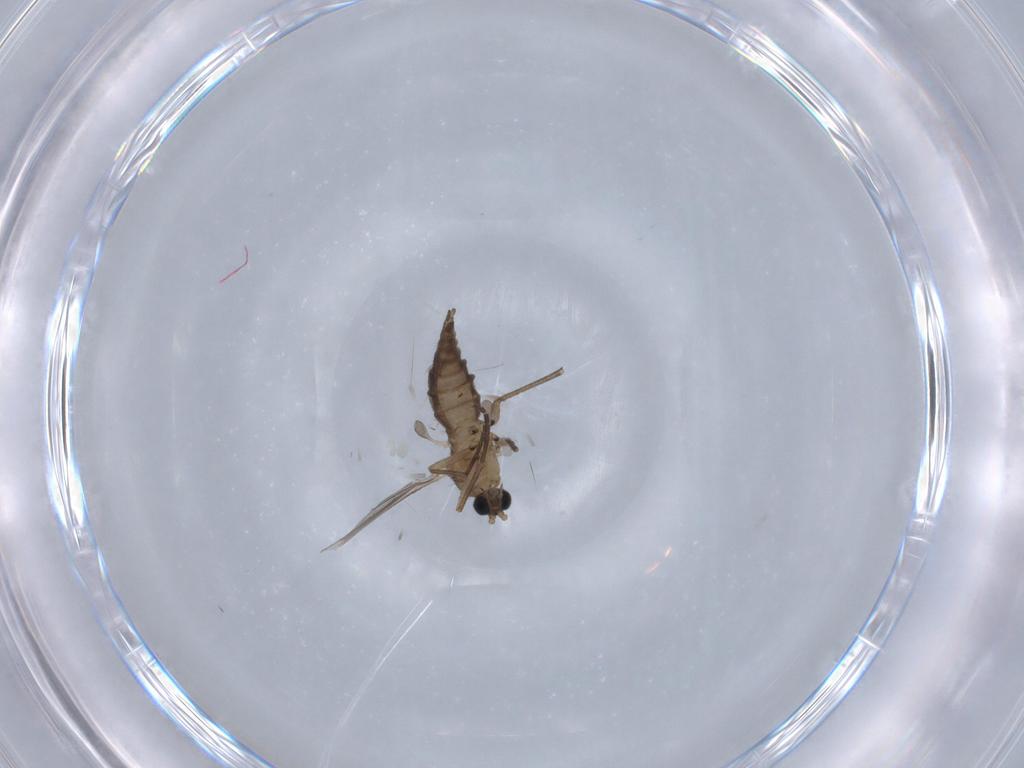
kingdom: Animalia
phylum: Arthropoda
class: Insecta
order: Diptera
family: Sciaridae
